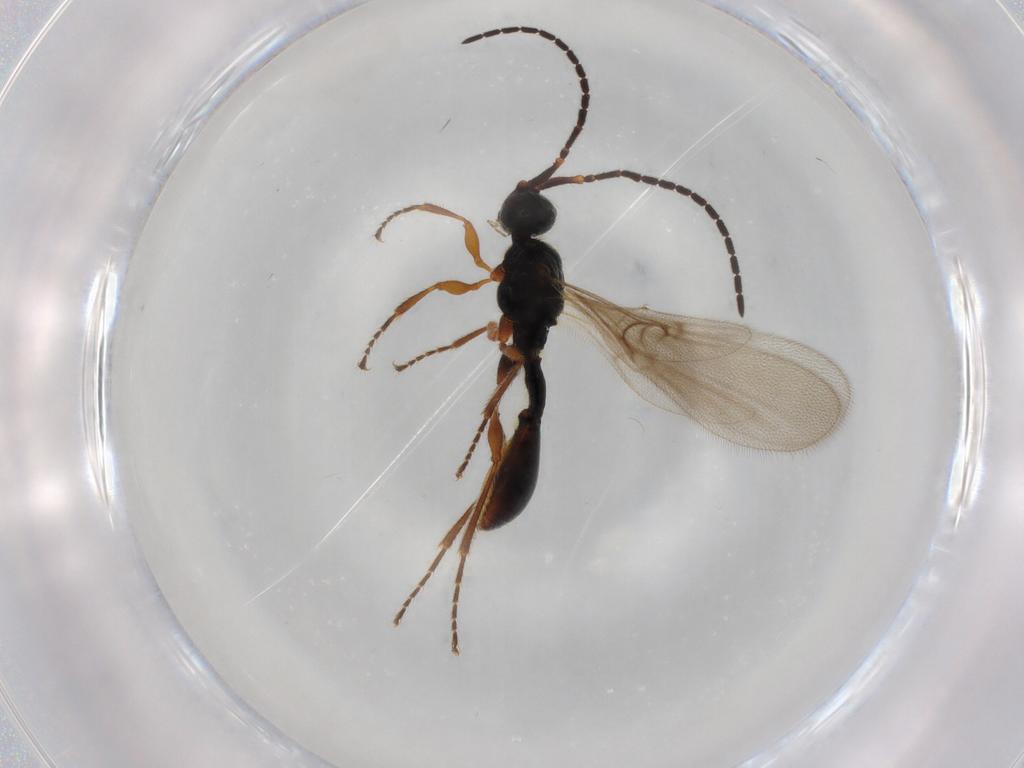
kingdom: Animalia
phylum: Arthropoda
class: Insecta
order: Hymenoptera
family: Diapriidae
